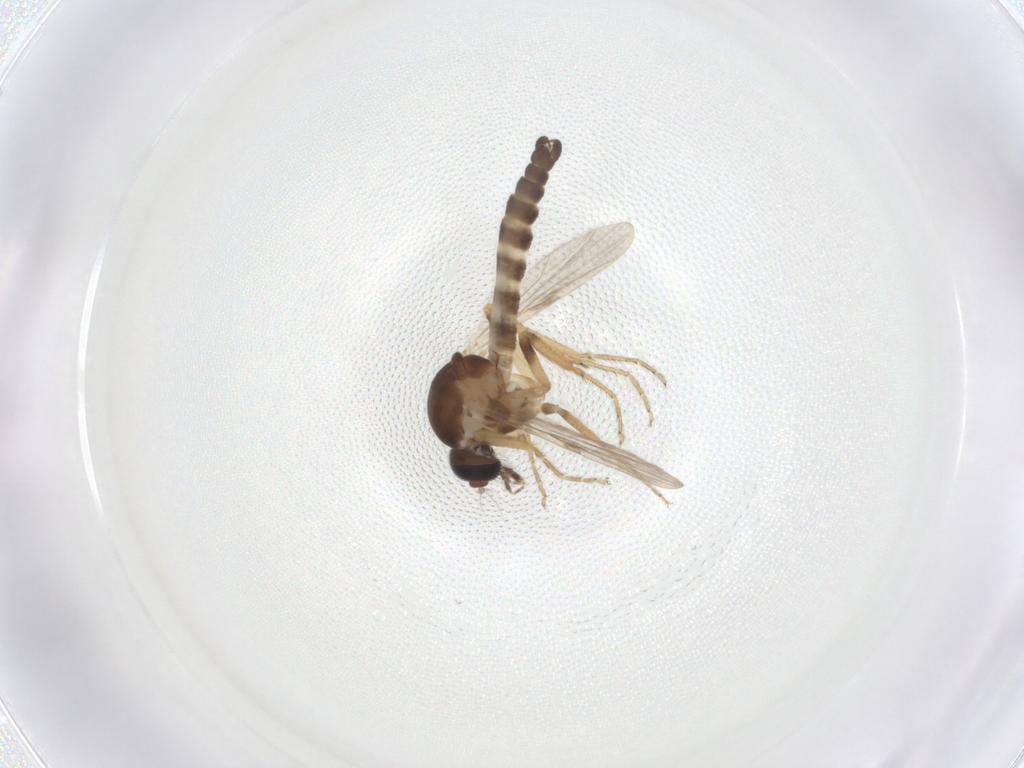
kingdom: Animalia
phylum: Arthropoda
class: Insecta
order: Diptera
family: Ceratopogonidae
